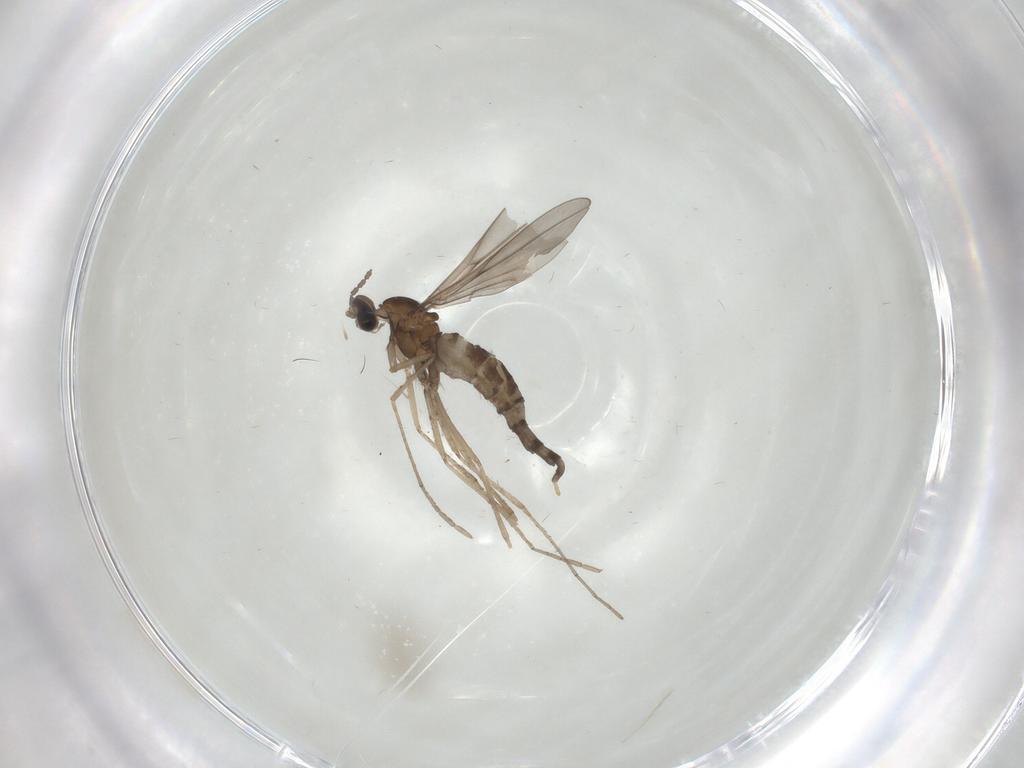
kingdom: Animalia
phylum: Arthropoda
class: Insecta
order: Diptera
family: Cecidomyiidae
